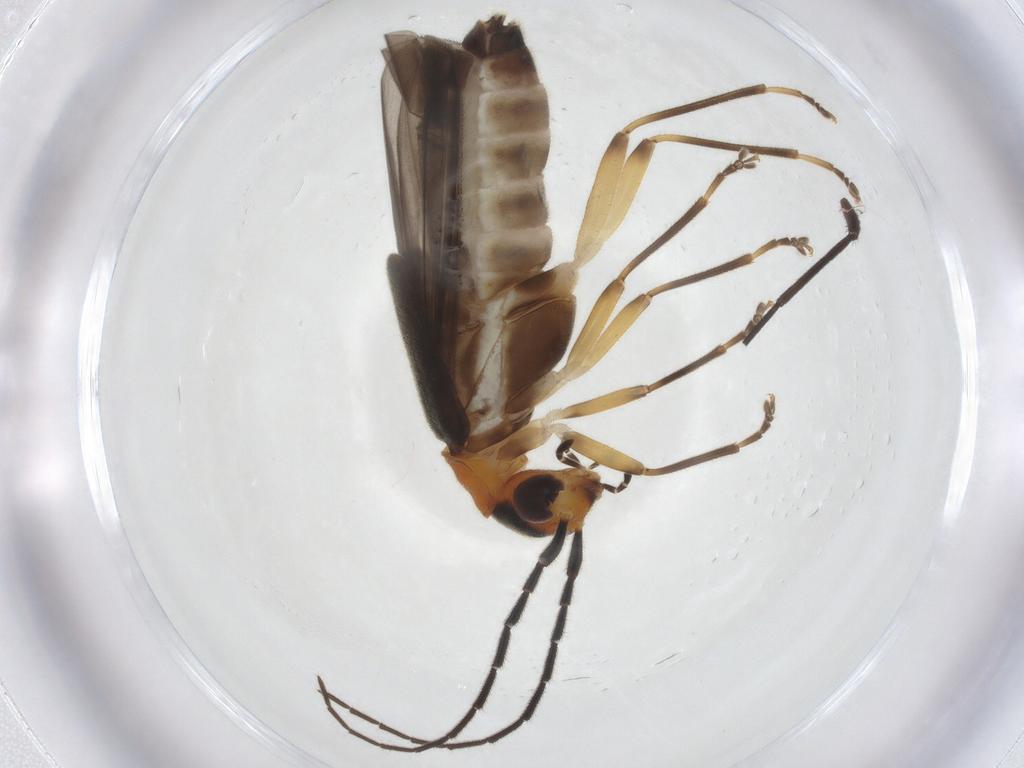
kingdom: Animalia
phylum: Arthropoda
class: Insecta
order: Coleoptera
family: Cantharidae
